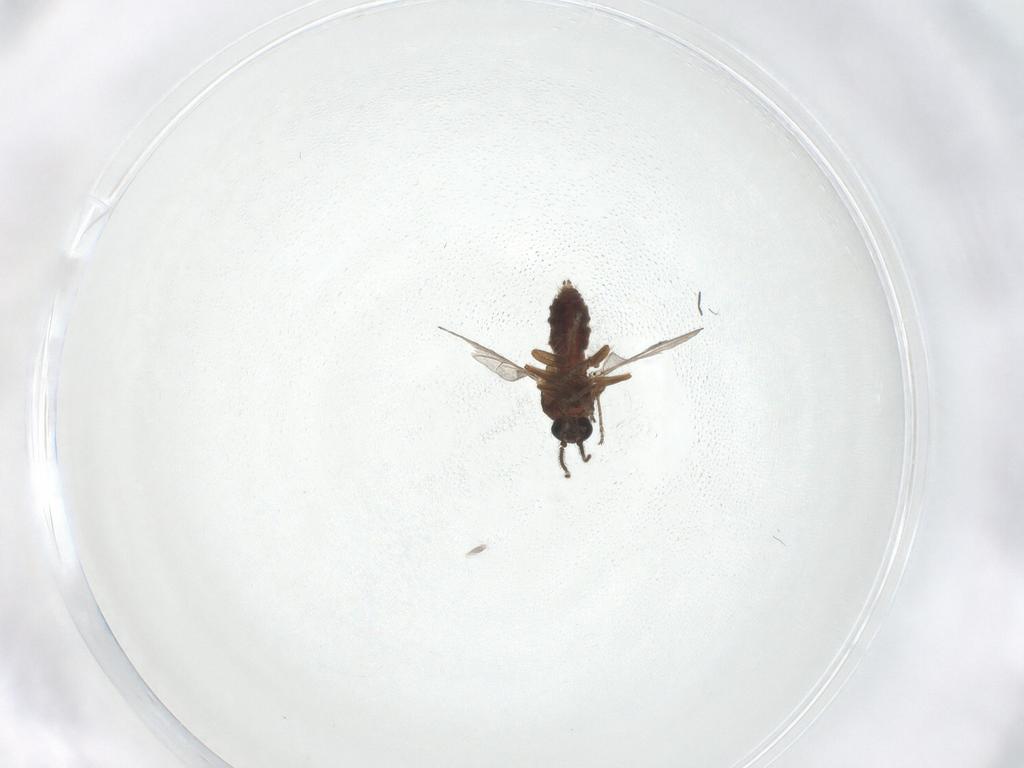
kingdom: Animalia
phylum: Arthropoda
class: Insecta
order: Diptera
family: Ceratopogonidae
